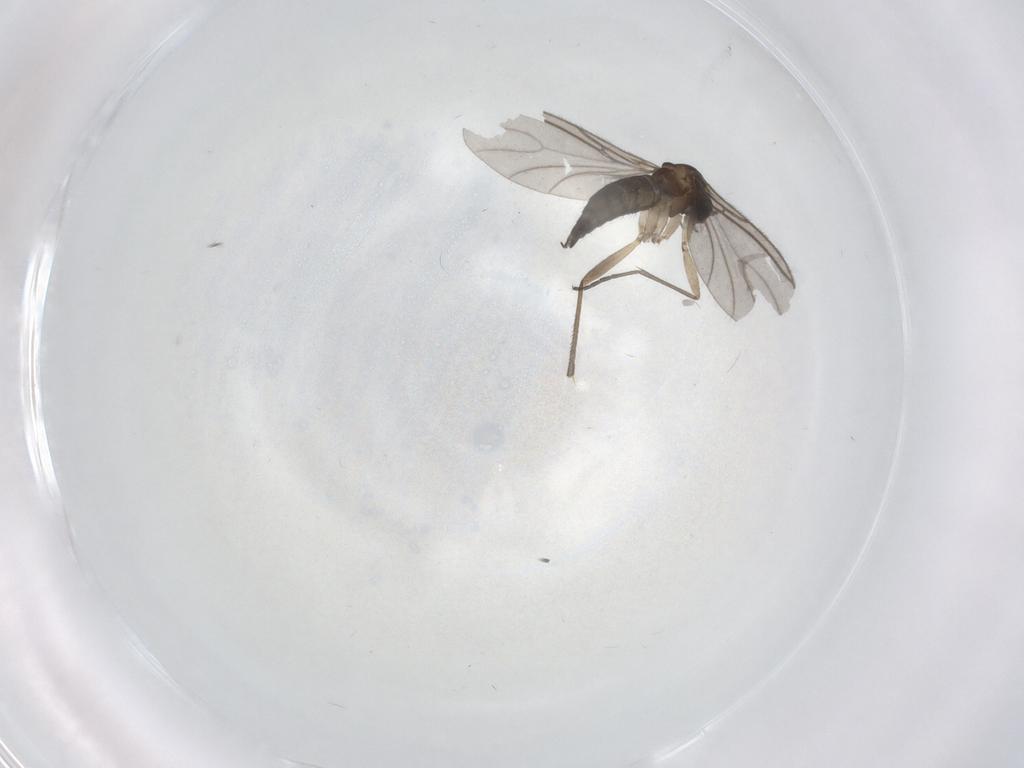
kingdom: Animalia
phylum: Arthropoda
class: Insecta
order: Diptera
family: Sciaridae
